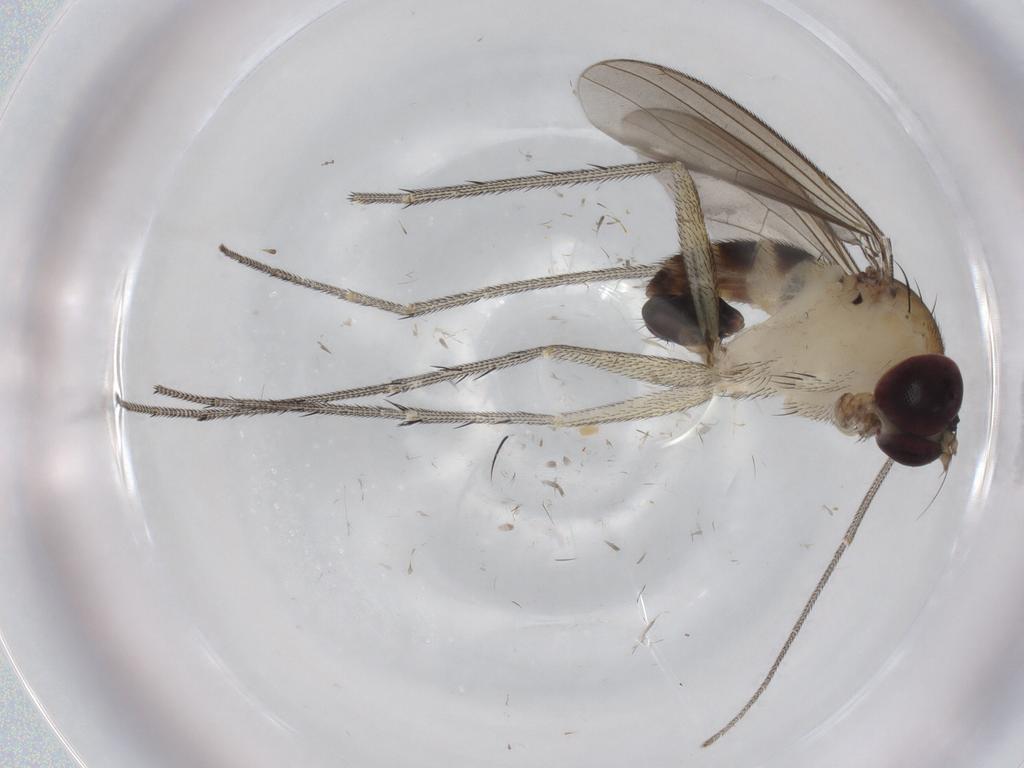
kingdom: Animalia
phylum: Arthropoda
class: Insecta
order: Diptera
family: Dolichopodidae
